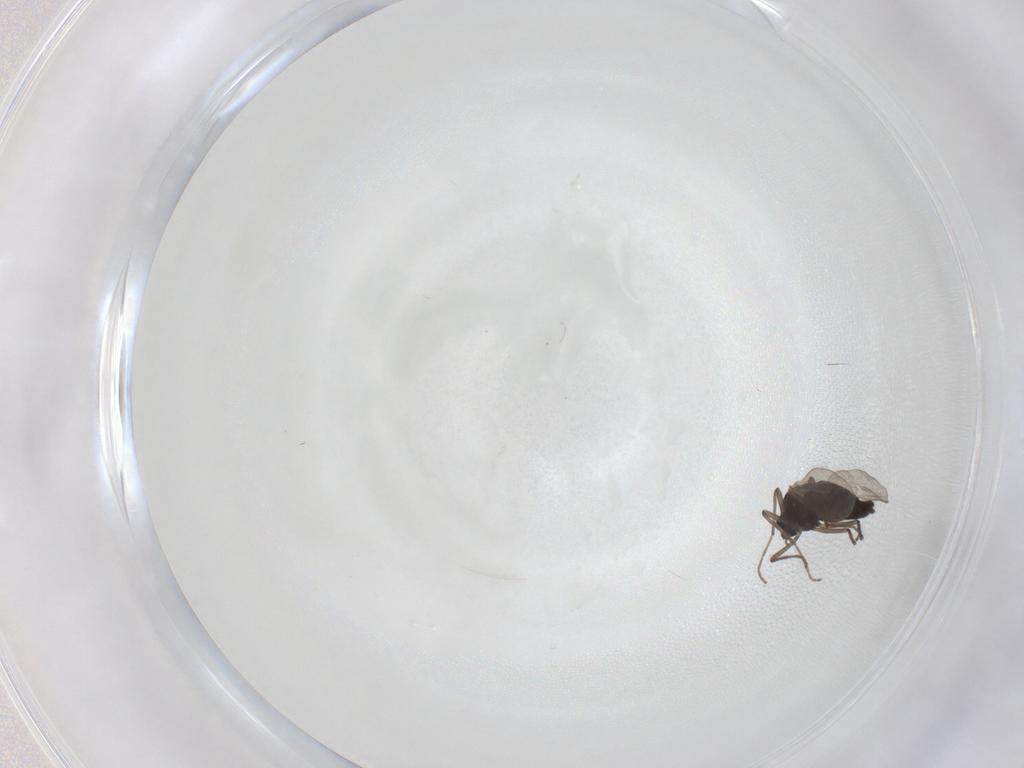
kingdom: Animalia
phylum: Arthropoda
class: Insecta
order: Diptera
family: Chironomidae
